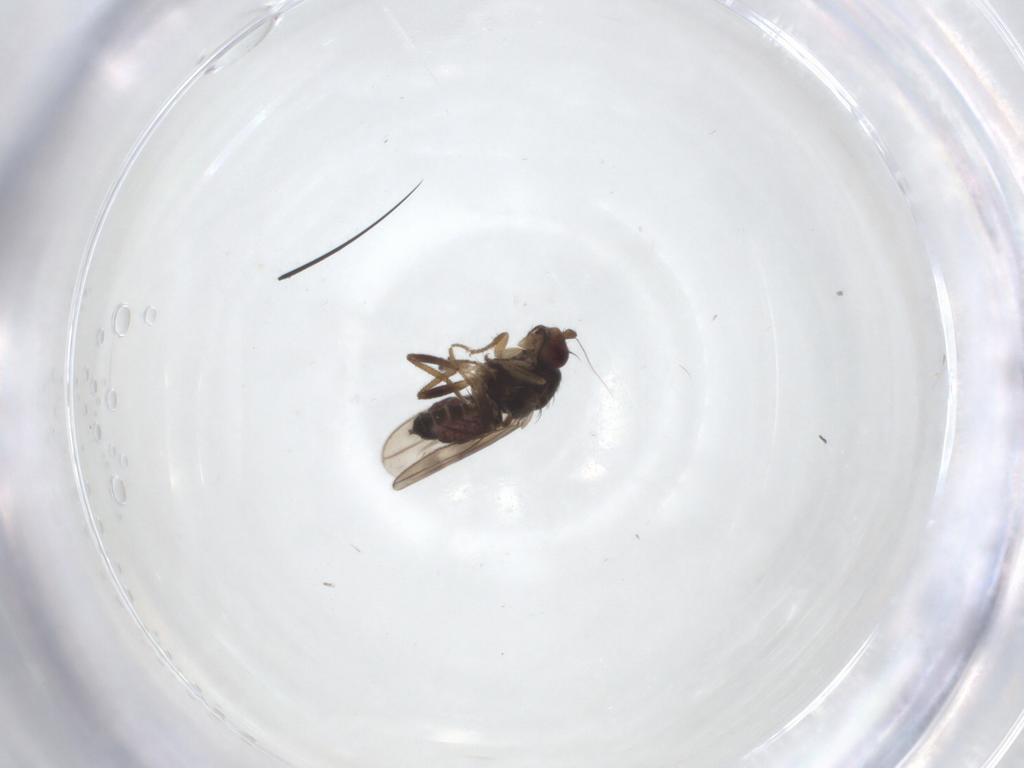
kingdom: Animalia
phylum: Arthropoda
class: Insecta
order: Diptera
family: Sphaeroceridae
